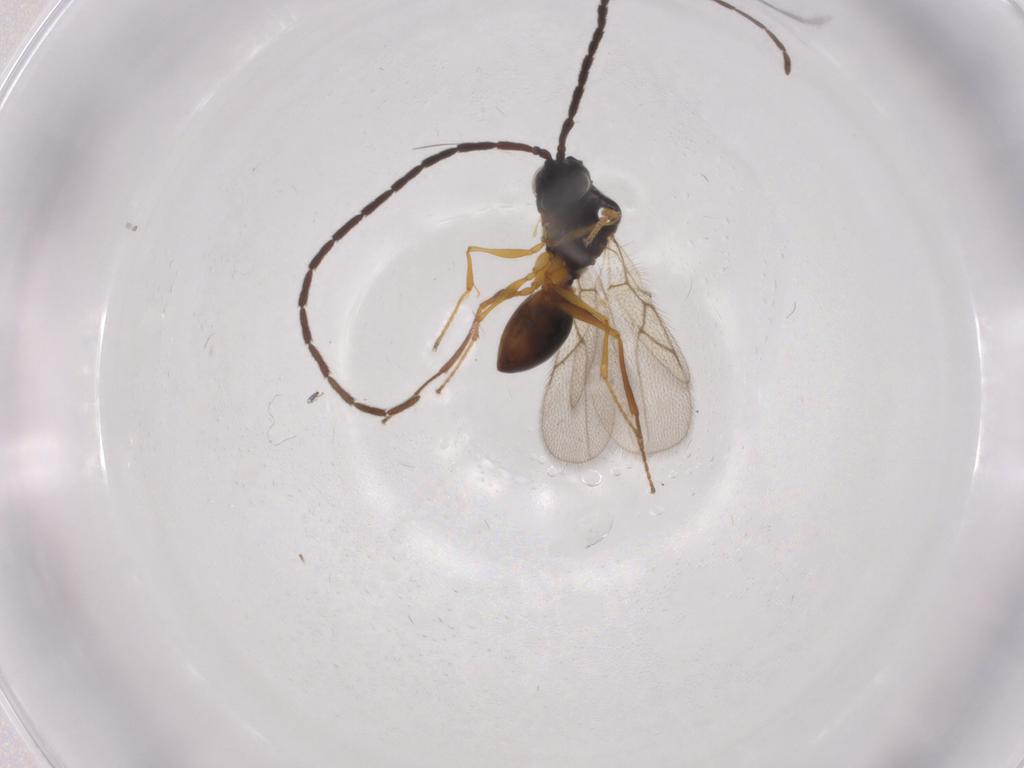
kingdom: Animalia
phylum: Arthropoda
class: Insecta
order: Hymenoptera
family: Figitidae
